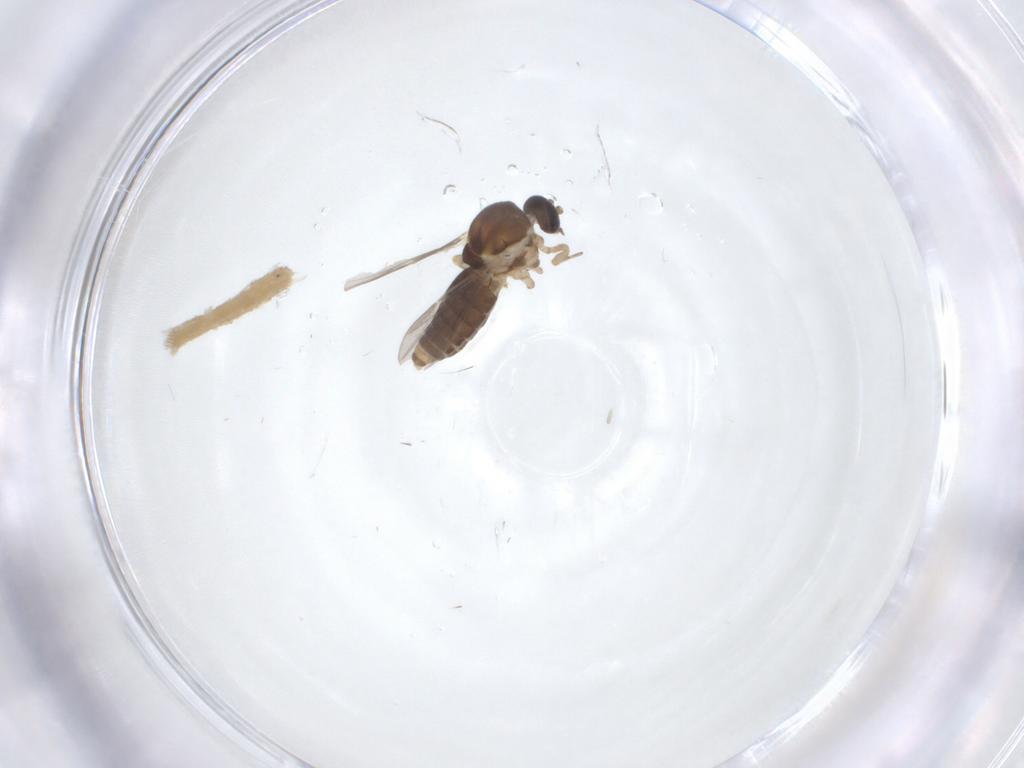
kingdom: Animalia
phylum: Arthropoda
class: Insecta
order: Diptera
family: Ceratopogonidae
